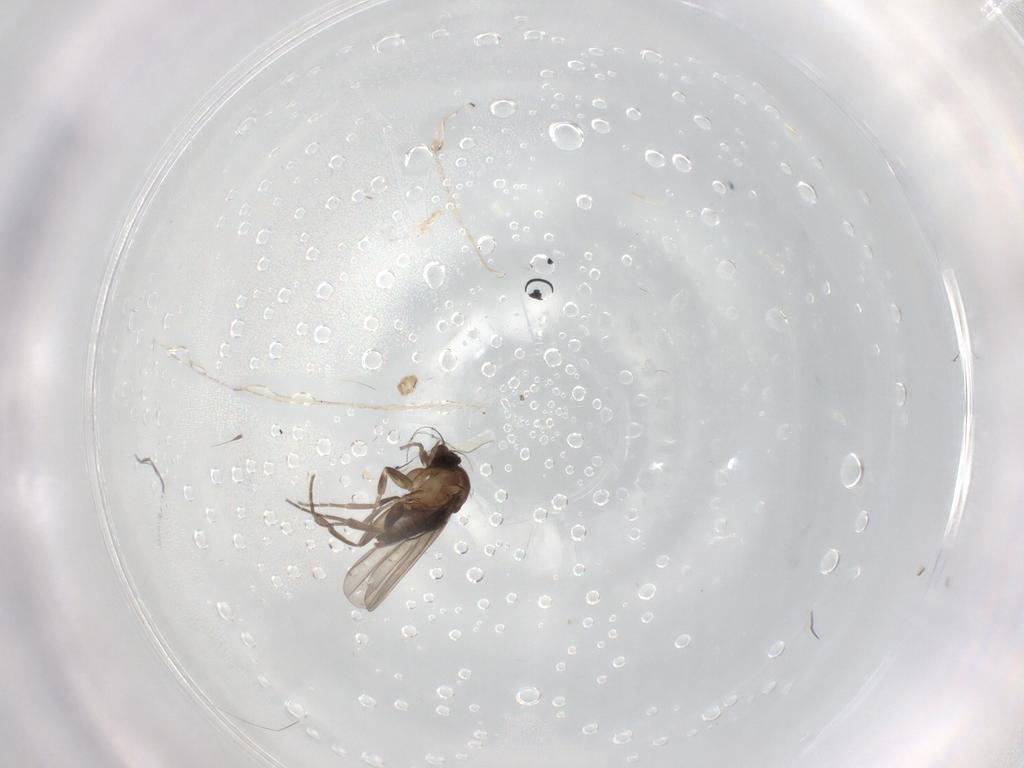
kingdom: Animalia
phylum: Arthropoda
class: Insecta
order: Diptera
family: Phoridae
